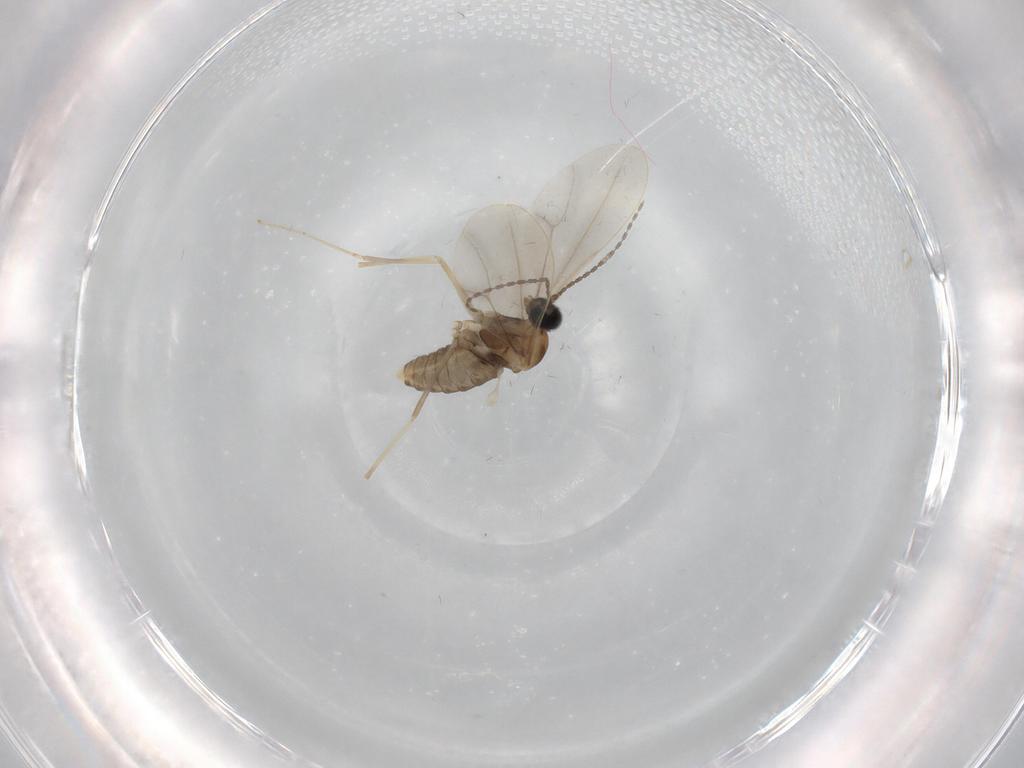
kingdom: Animalia
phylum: Arthropoda
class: Insecta
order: Diptera
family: Cecidomyiidae
